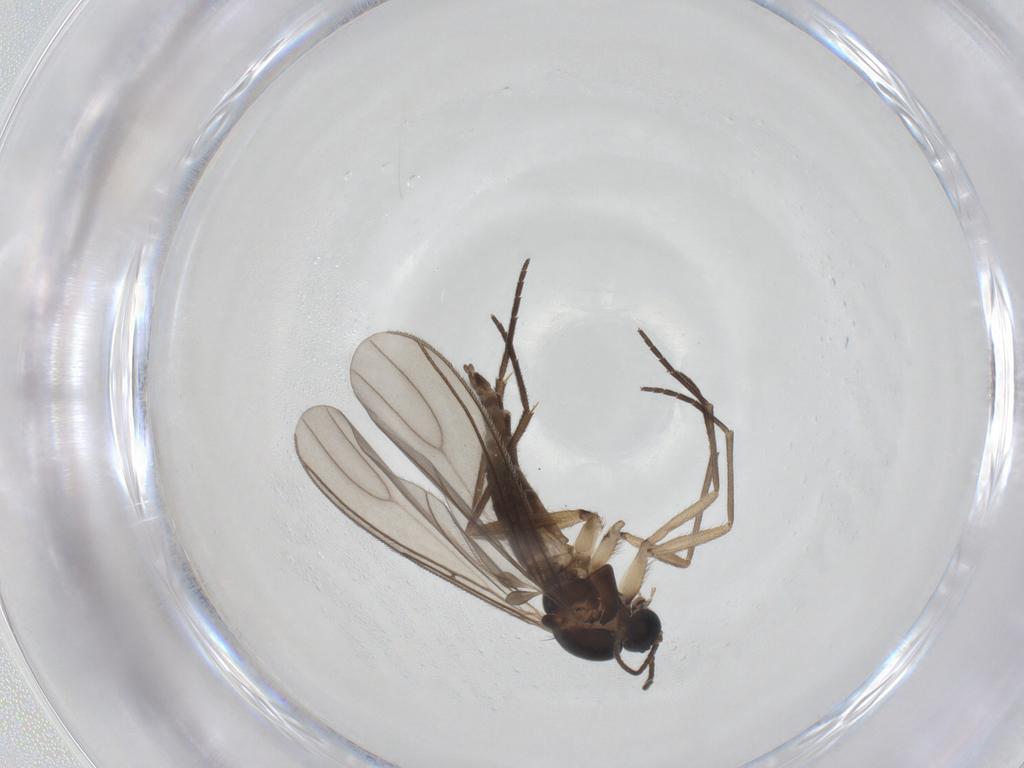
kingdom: Animalia
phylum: Arthropoda
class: Insecta
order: Diptera
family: Sciaridae
